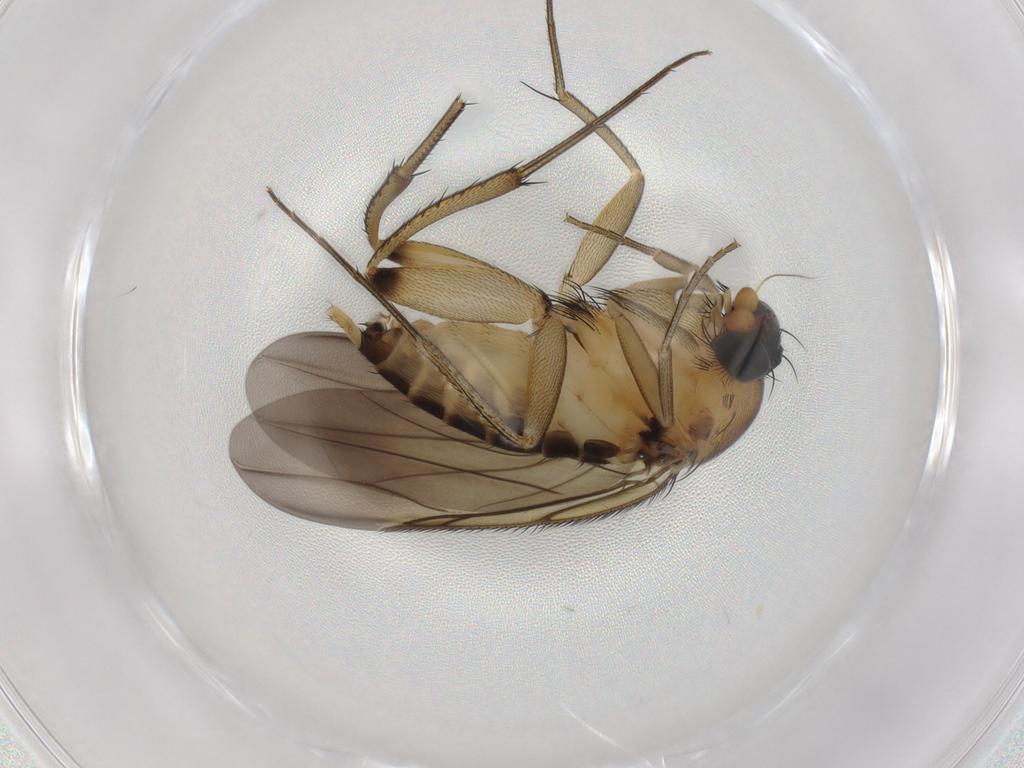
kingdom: Animalia
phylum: Arthropoda
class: Insecta
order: Diptera
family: Phoridae
